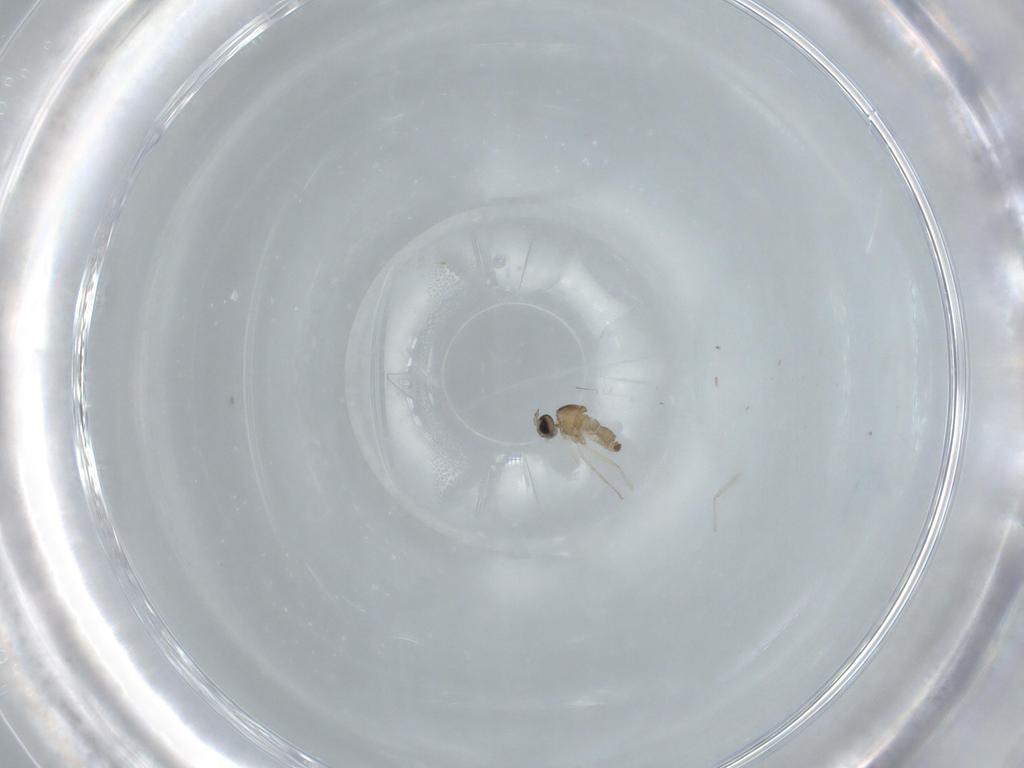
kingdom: Animalia
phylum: Arthropoda
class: Insecta
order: Diptera
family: Cecidomyiidae
